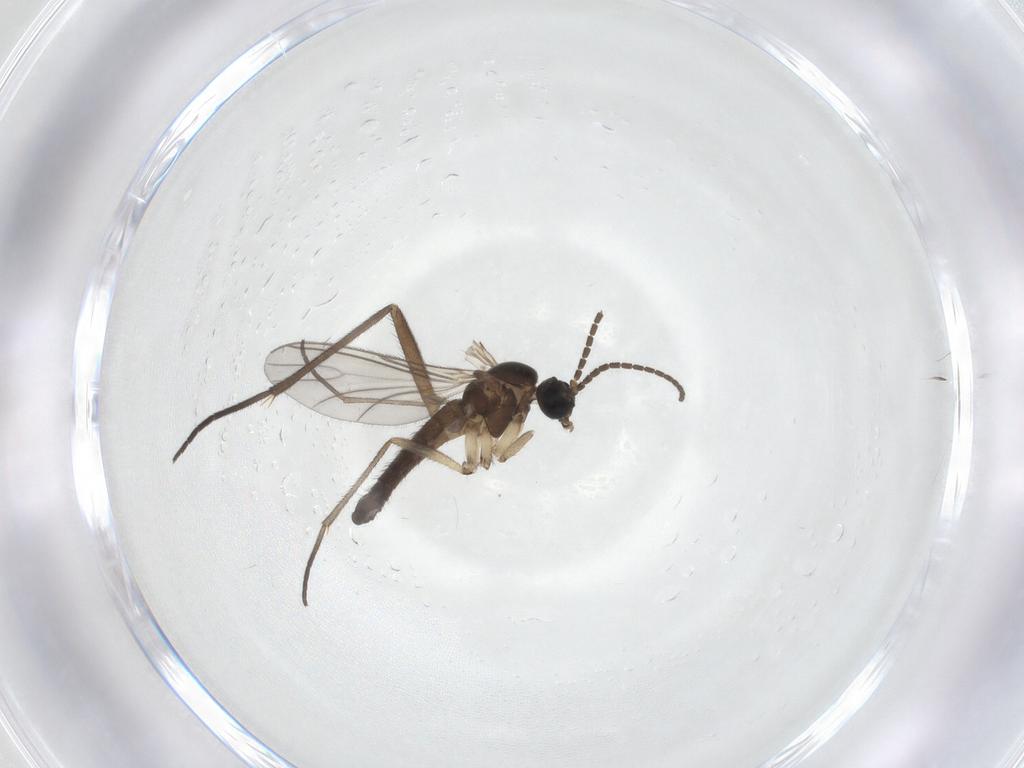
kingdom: Animalia
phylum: Arthropoda
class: Insecta
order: Diptera
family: Sciaridae
